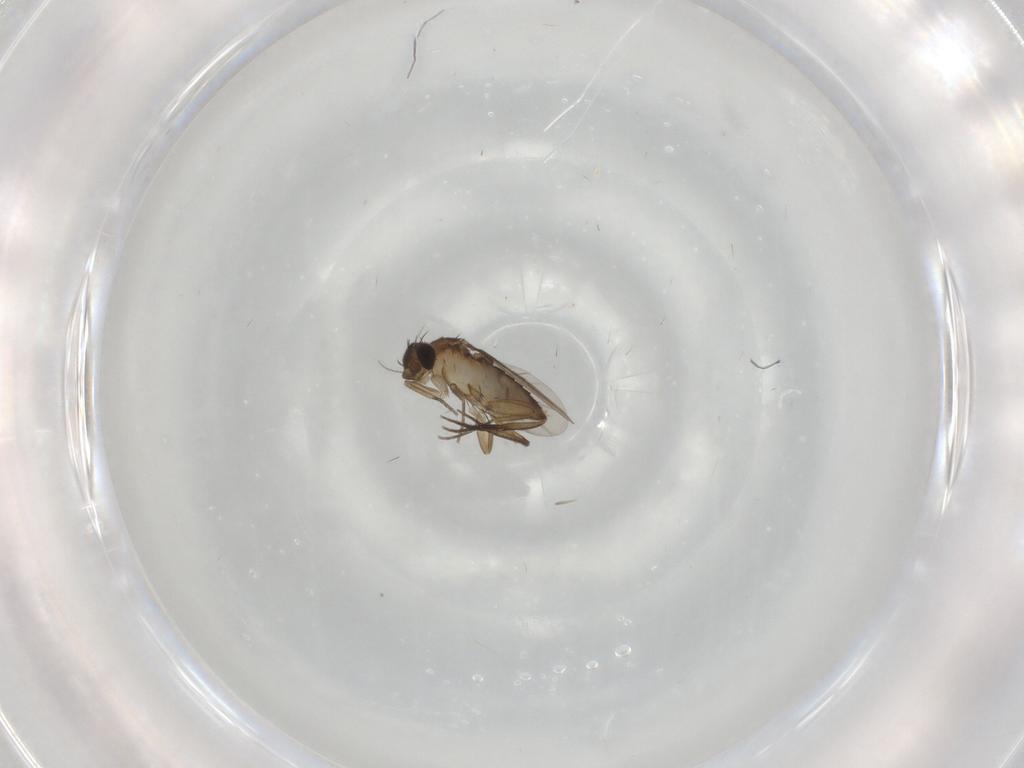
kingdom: Animalia
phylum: Arthropoda
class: Insecta
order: Diptera
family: Phoridae
